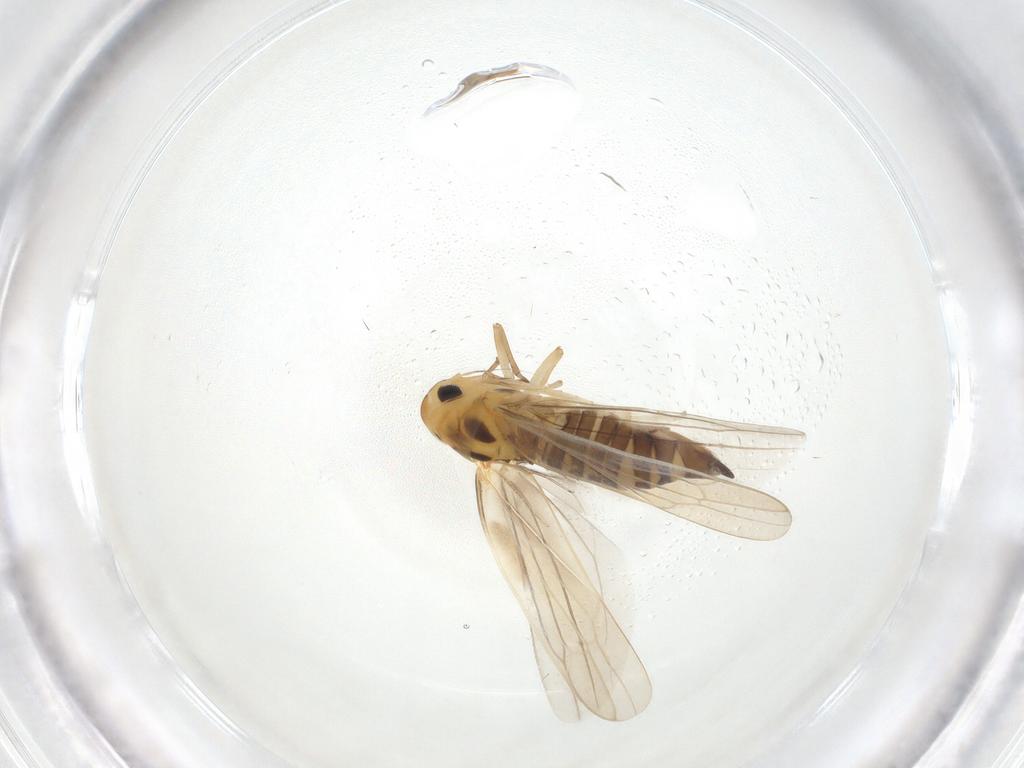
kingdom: Animalia
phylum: Arthropoda
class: Insecta
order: Hemiptera
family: Cicadellidae
